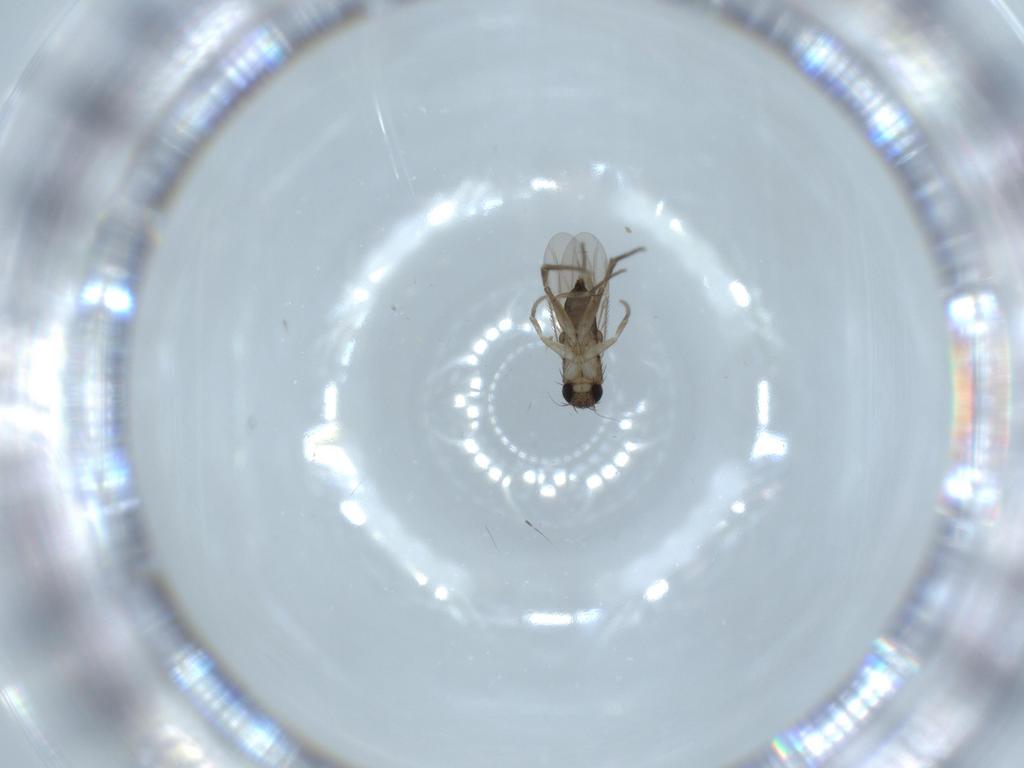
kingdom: Animalia
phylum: Arthropoda
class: Insecta
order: Diptera
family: Phoridae
